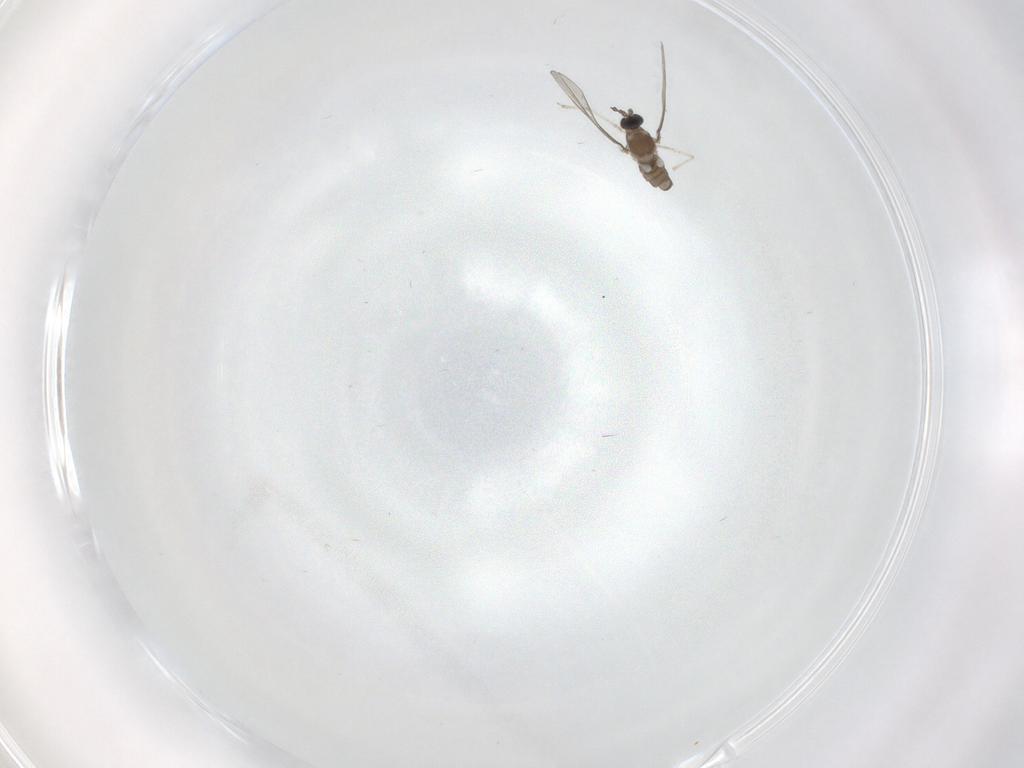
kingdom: Animalia
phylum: Arthropoda
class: Insecta
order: Diptera
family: Cecidomyiidae
